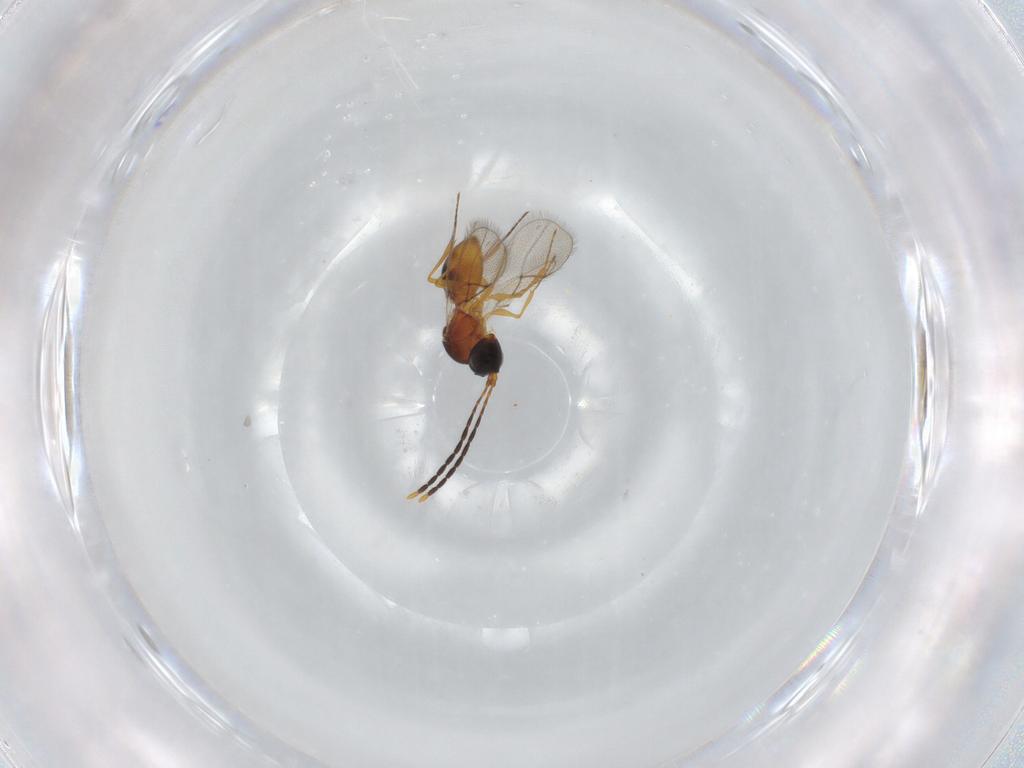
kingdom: Animalia
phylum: Arthropoda
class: Insecta
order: Hymenoptera
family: Figitidae
